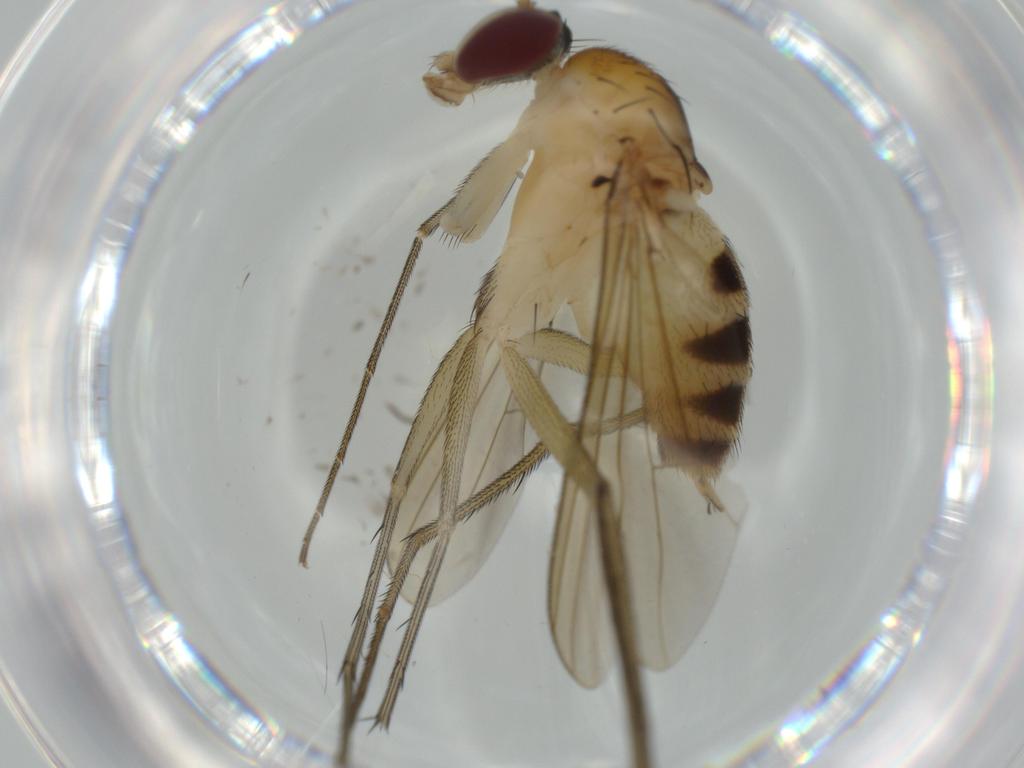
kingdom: Animalia
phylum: Arthropoda
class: Insecta
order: Diptera
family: Dolichopodidae
